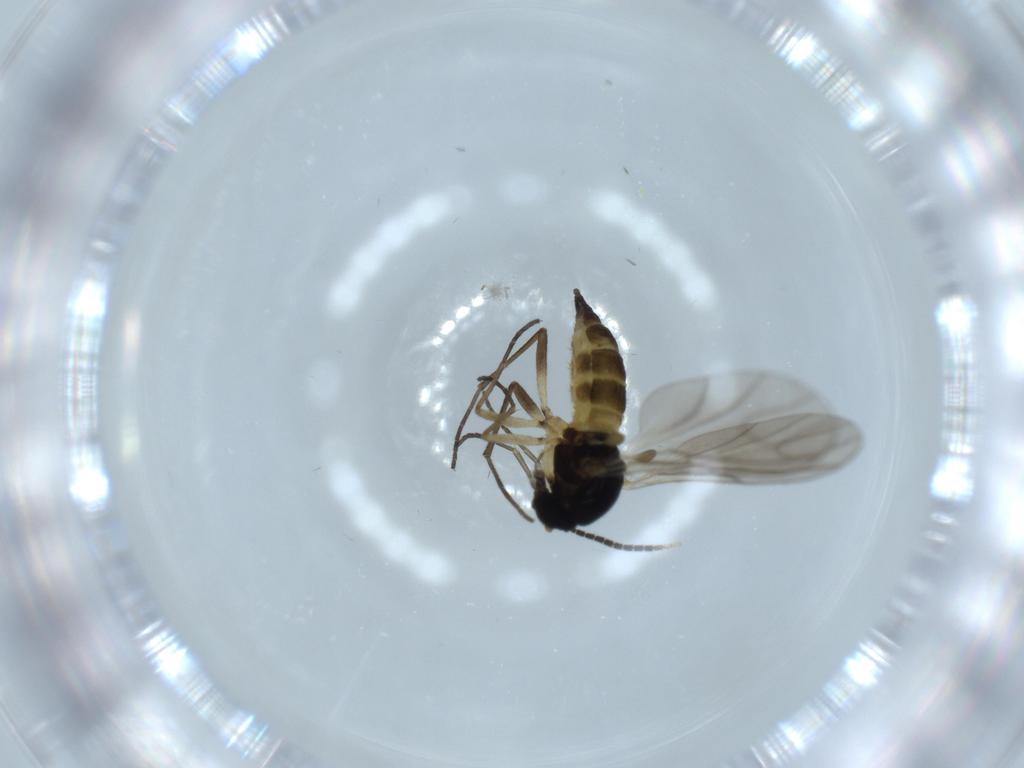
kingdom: Animalia
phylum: Arthropoda
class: Insecta
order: Diptera
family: Sciaridae
